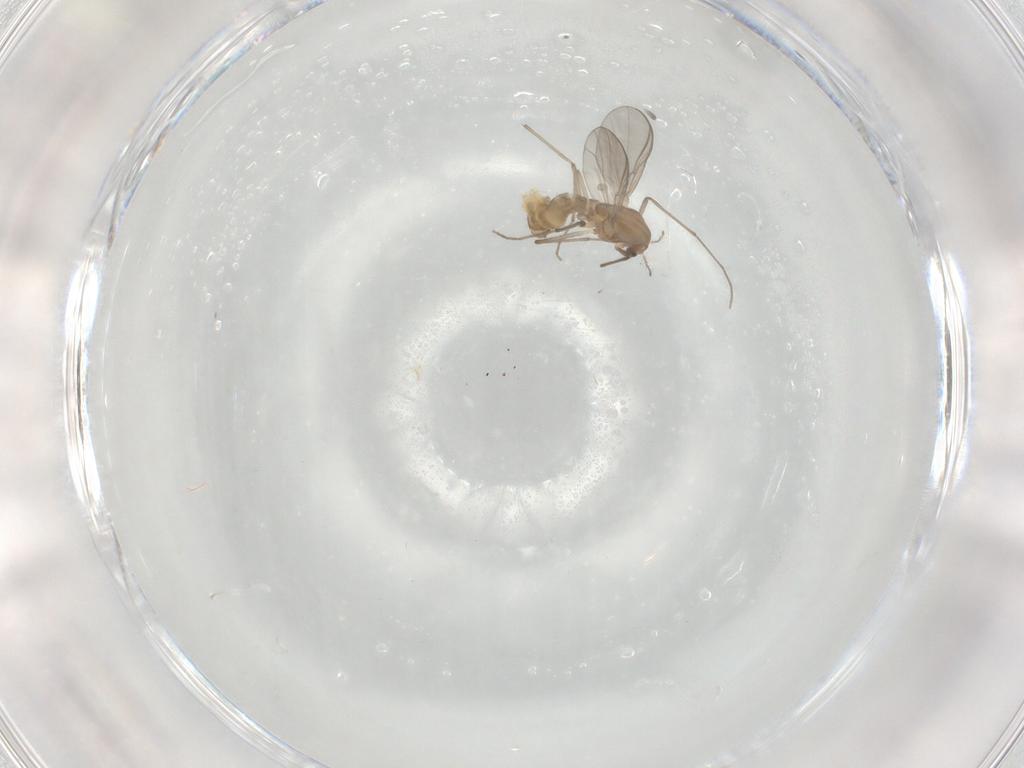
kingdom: Animalia
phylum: Arthropoda
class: Insecta
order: Diptera
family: Chironomidae
